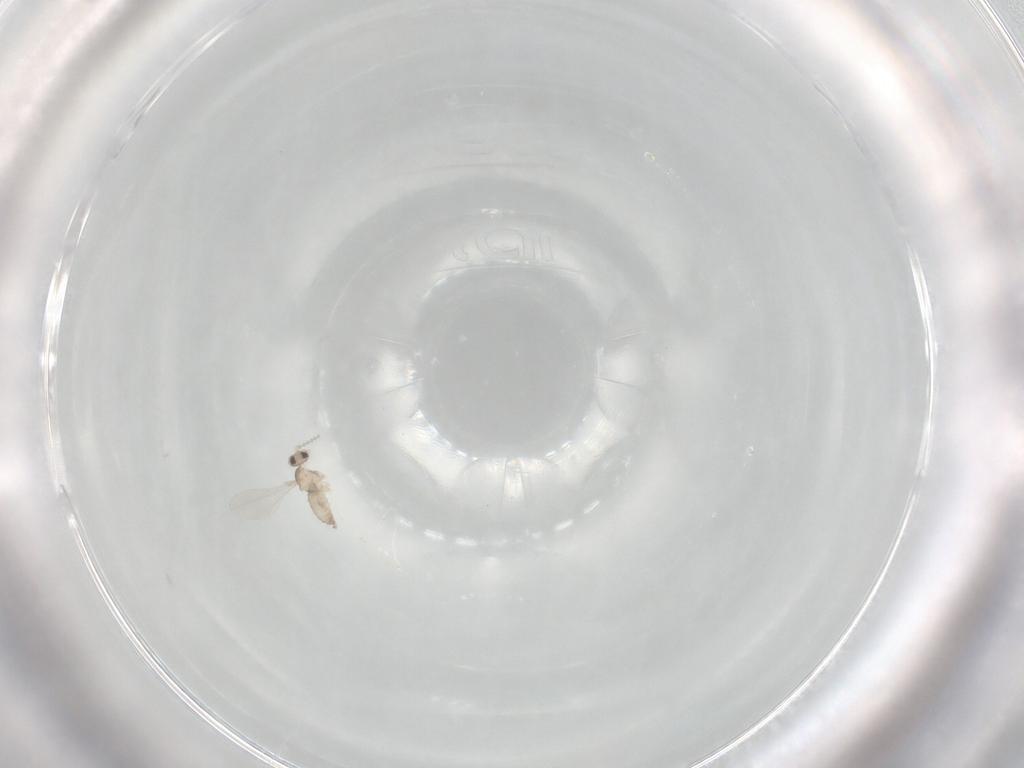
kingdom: Animalia
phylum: Arthropoda
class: Insecta
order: Diptera
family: Cecidomyiidae
